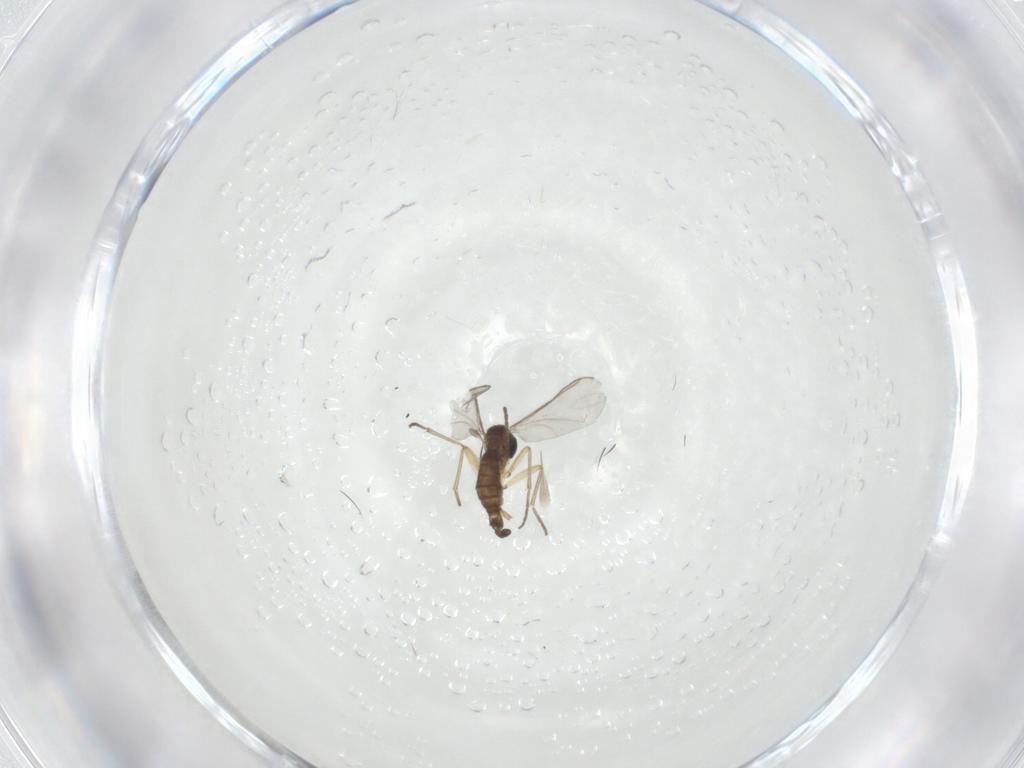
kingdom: Animalia
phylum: Arthropoda
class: Insecta
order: Diptera
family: Sciaridae
